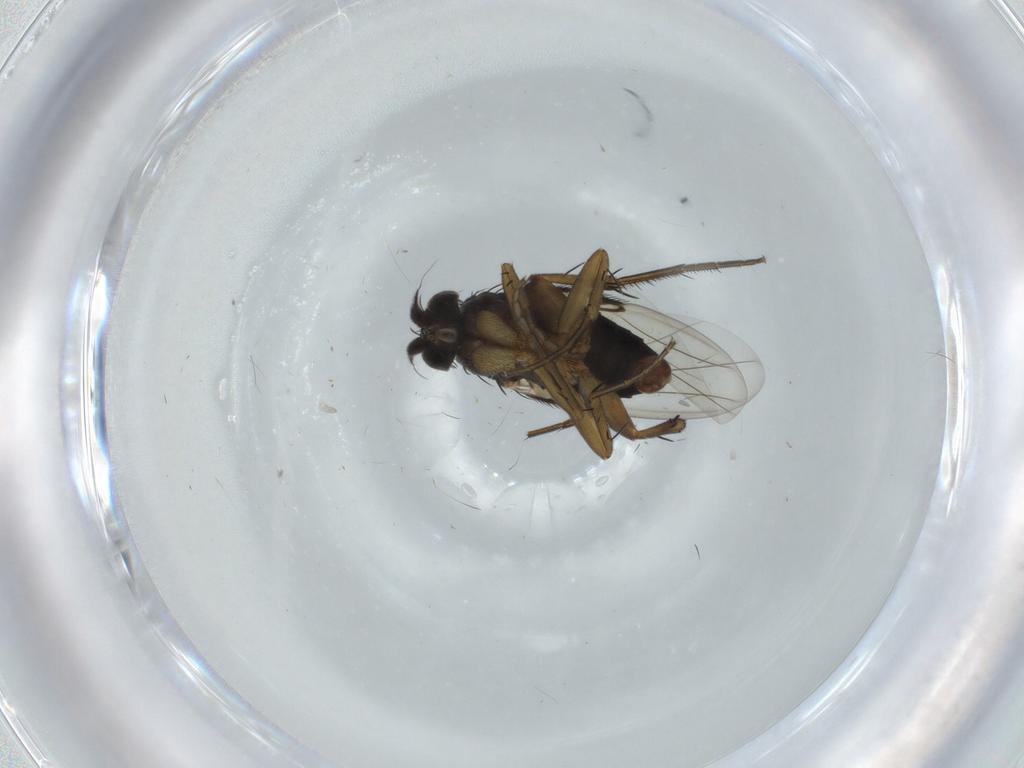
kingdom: Animalia
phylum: Arthropoda
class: Insecta
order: Diptera
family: Phoridae
